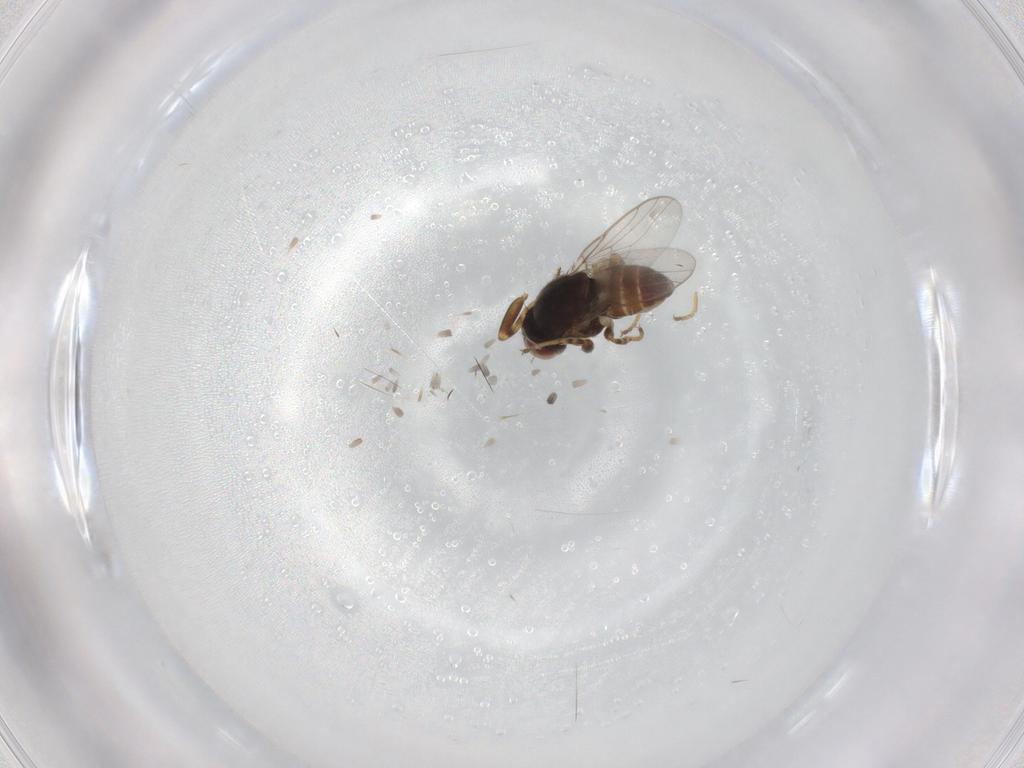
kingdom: Animalia
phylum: Arthropoda
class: Insecta
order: Diptera
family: Chloropidae
